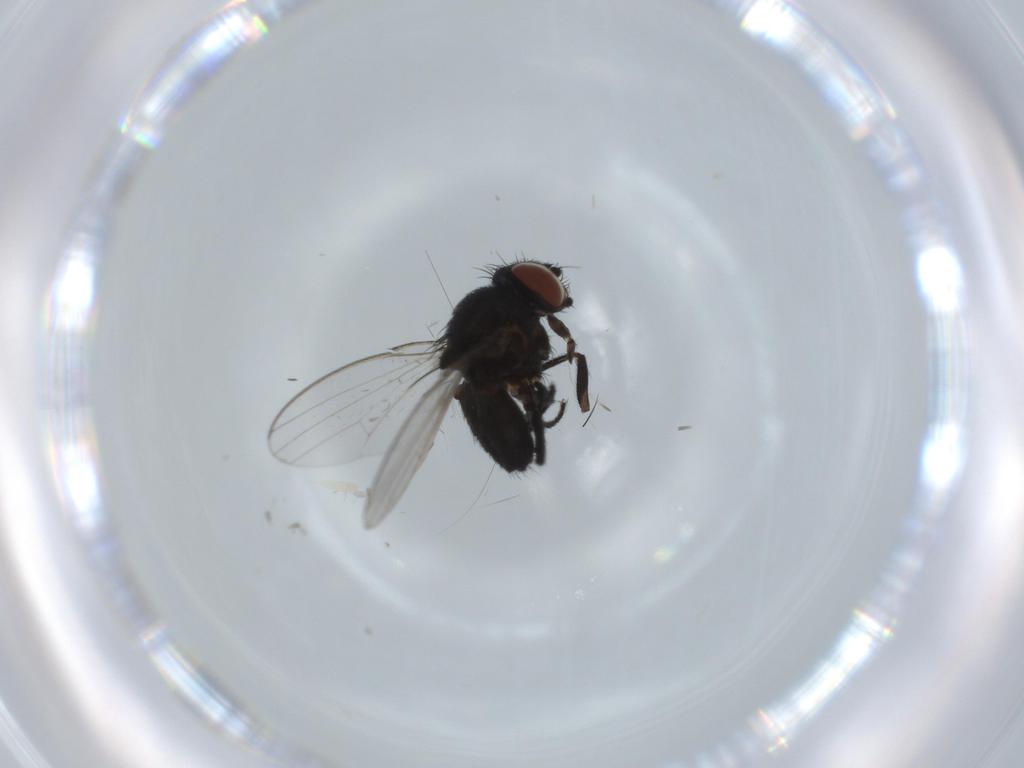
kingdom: Animalia
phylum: Arthropoda
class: Insecta
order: Diptera
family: Milichiidae
